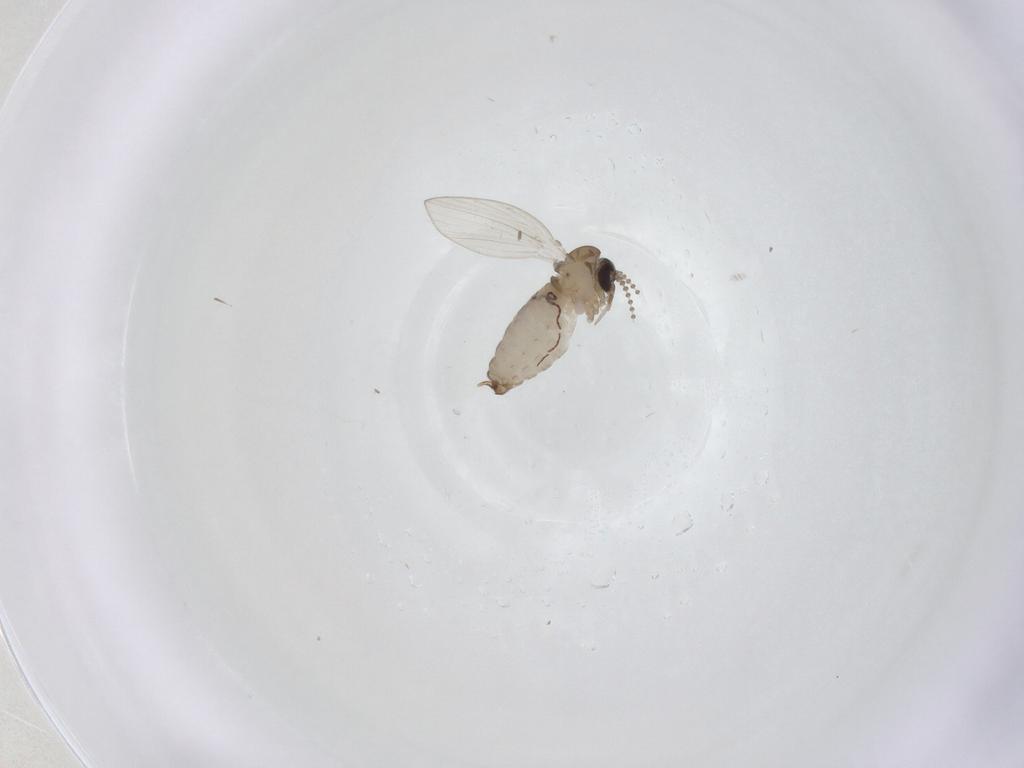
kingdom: Animalia
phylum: Arthropoda
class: Insecta
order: Diptera
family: Psychodidae
